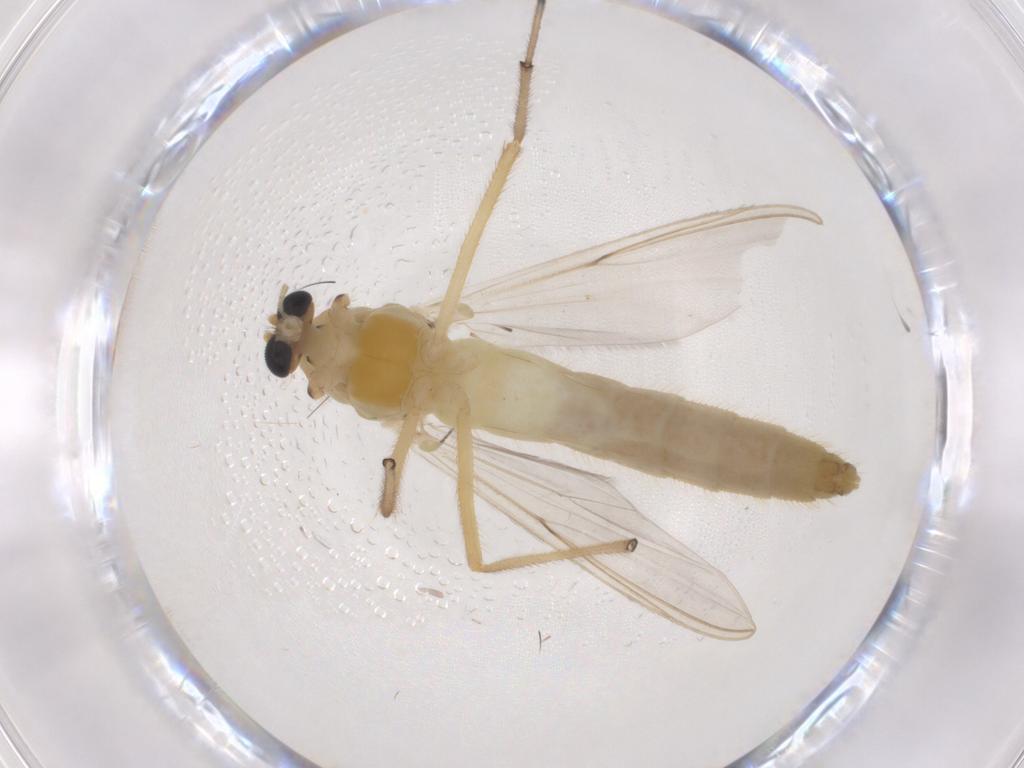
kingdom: Animalia
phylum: Arthropoda
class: Insecta
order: Diptera
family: Chironomidae
